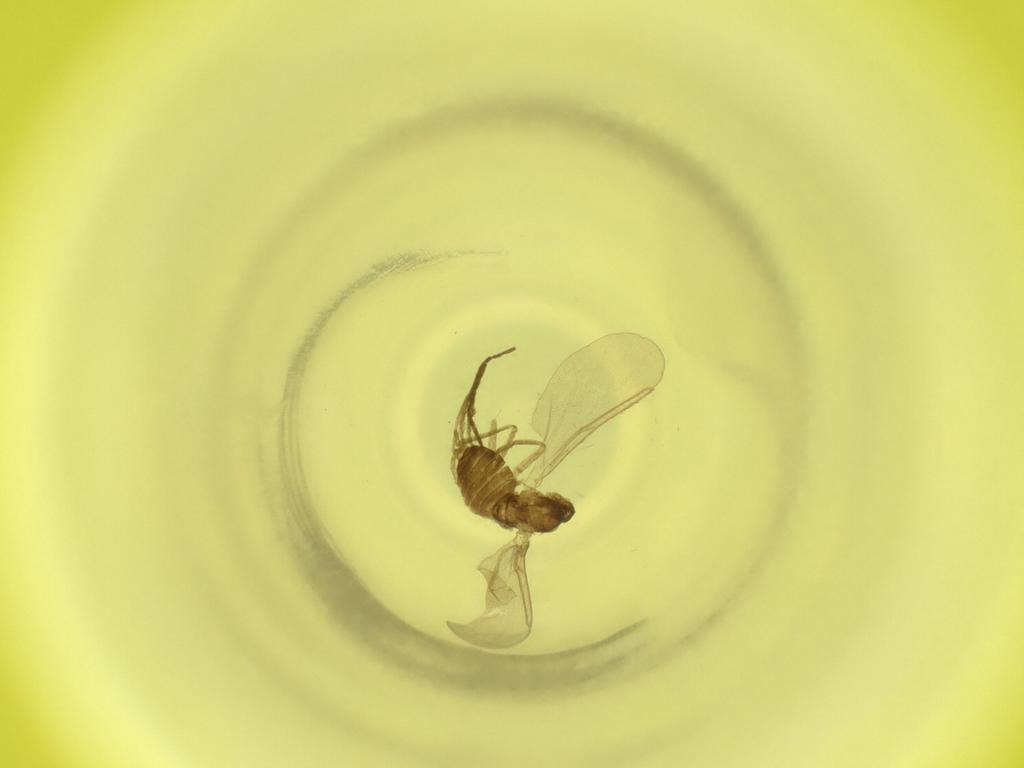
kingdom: Animalia
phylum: Arthropoda
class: Insecta
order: Diptera
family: Cecidomyiidae
